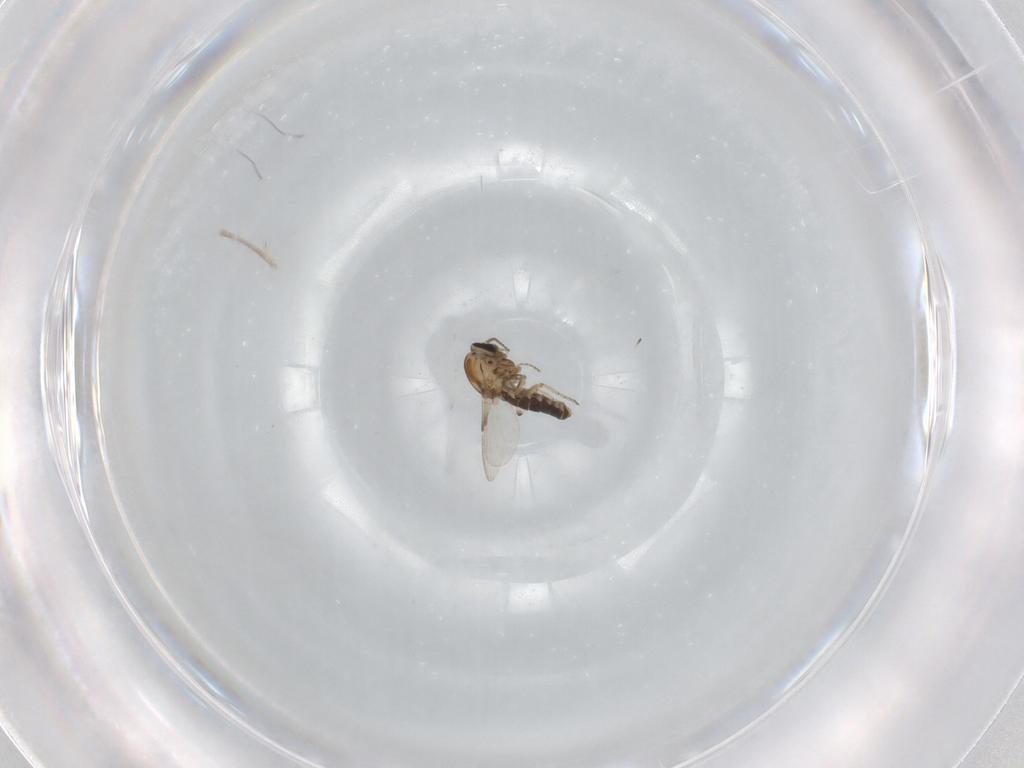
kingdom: Animalia
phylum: Arthropoda
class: Insecta
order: Diptera
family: Ceratopogonidae
